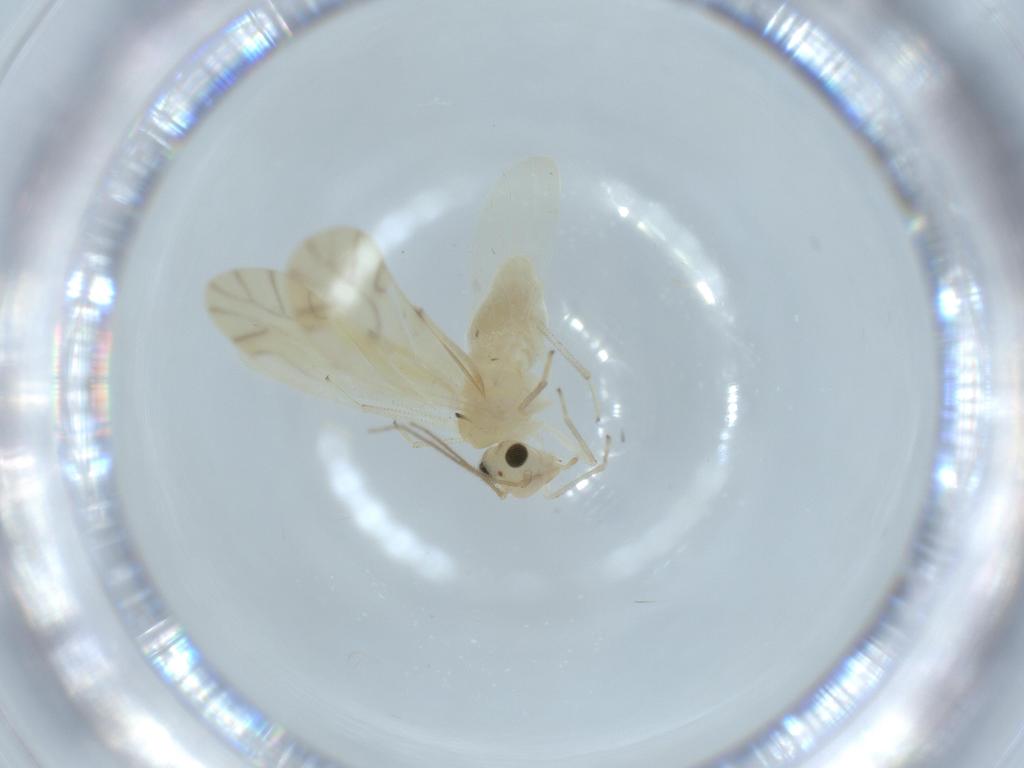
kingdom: Animalia
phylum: Arthropoda
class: Insecta
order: Psocodea
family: Caeciliusidae
